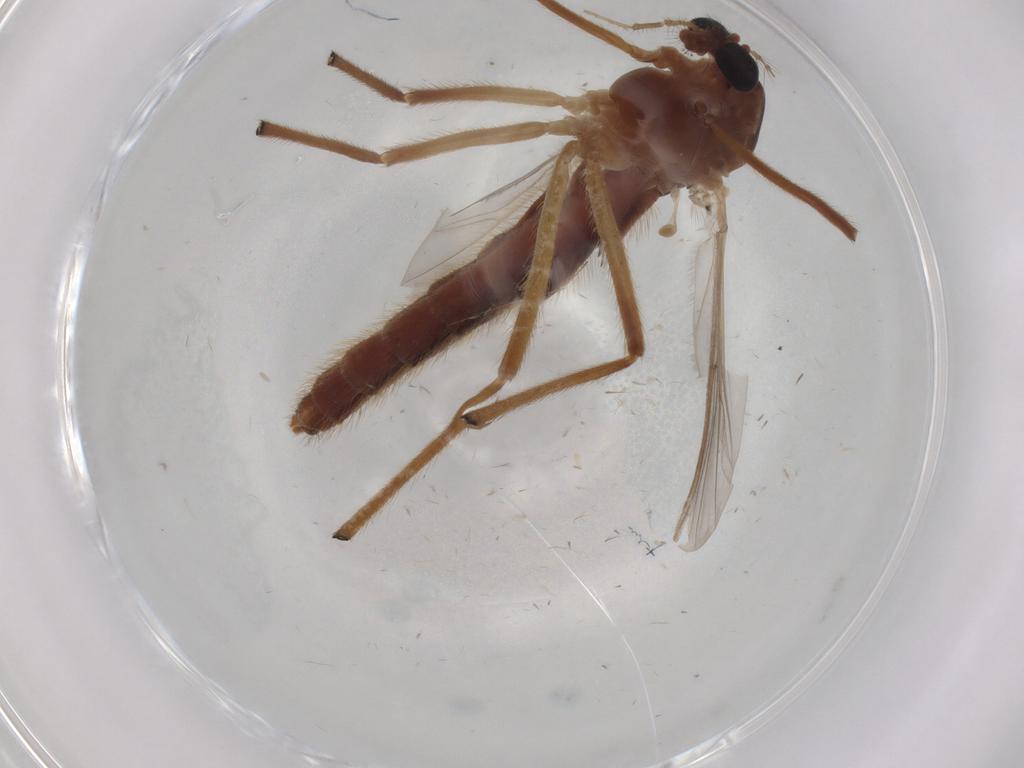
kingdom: Animalia
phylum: Arthropoda
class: Insecta
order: Diptera
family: Chironomidae
